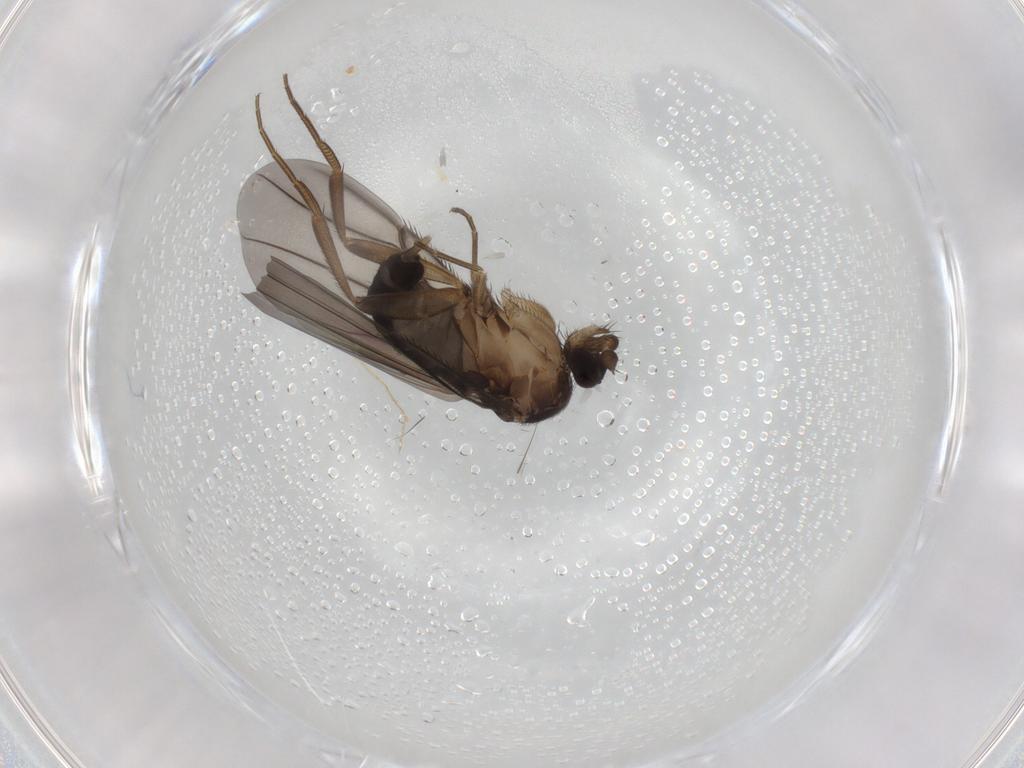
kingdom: Animalia
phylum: Arthropoda
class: Insecta
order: Diptera
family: Phoridae
